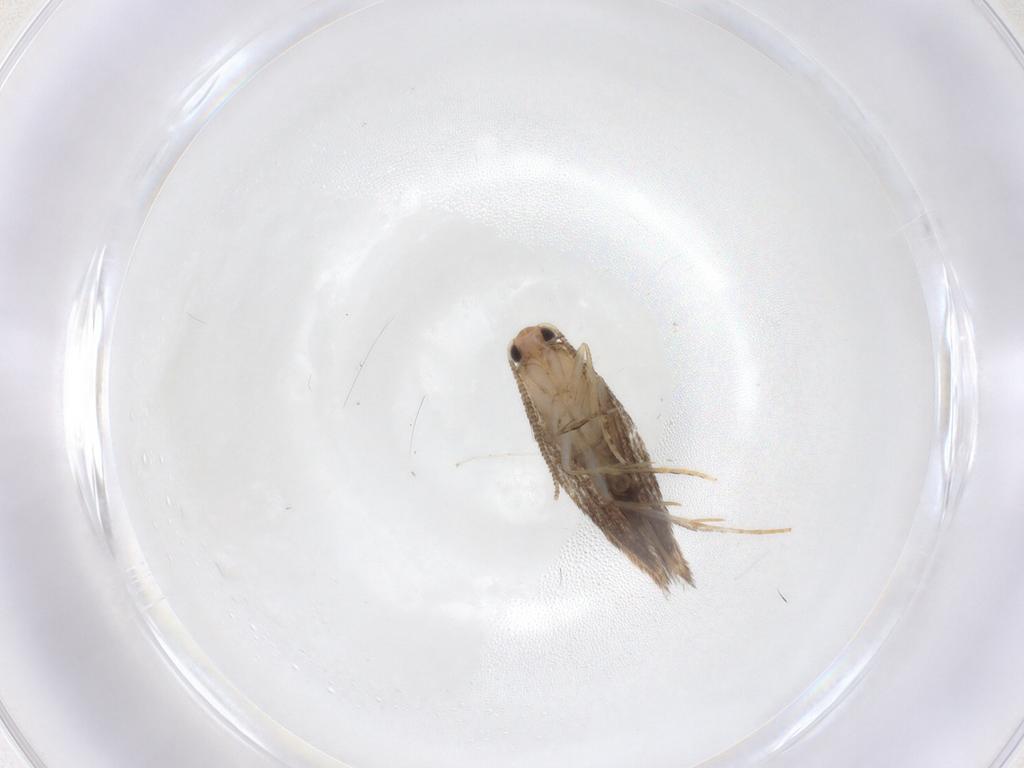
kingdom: Animalia
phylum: Arthropoda
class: Insecta
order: Lepidoptera
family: Tineidae
